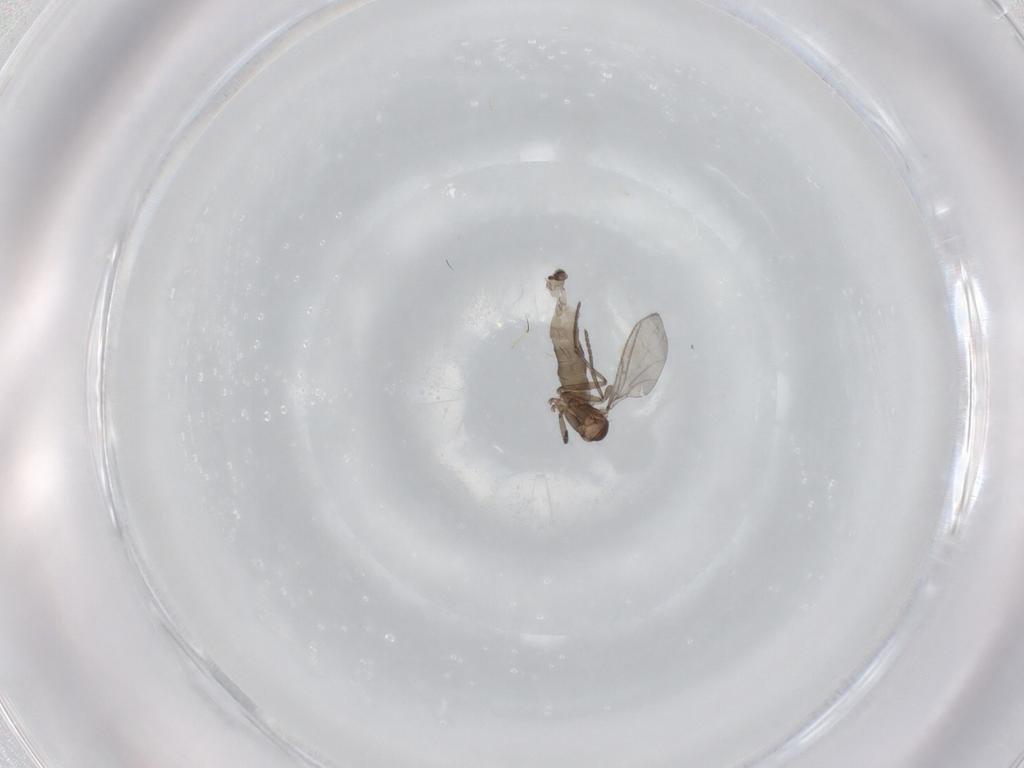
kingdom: Animalia
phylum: Arthropoda
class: Insecta
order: Diptera
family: Sciaridae
